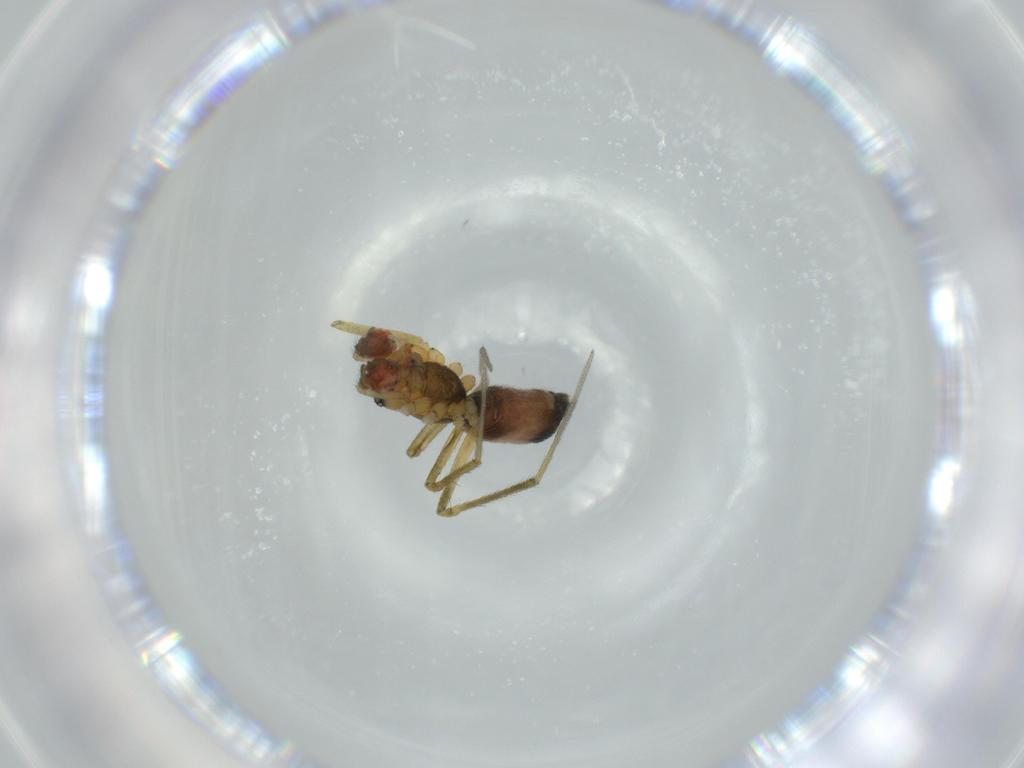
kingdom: Animalia
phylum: Arthropoda
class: Arachnida
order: Araneae
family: Linyphiidae
